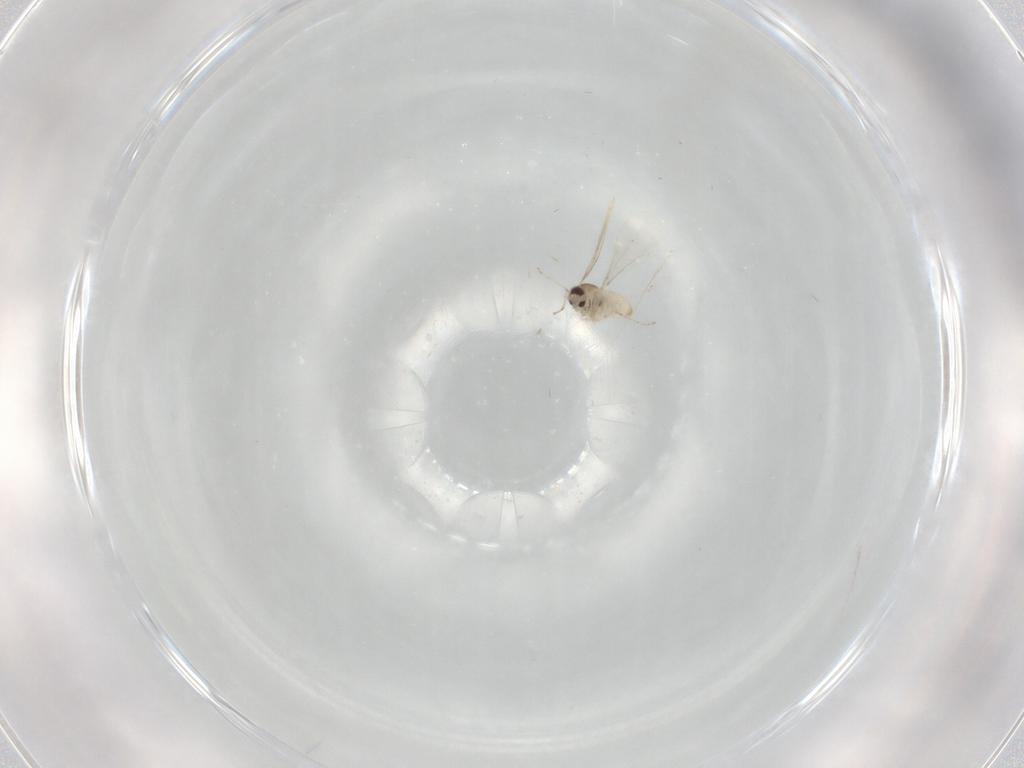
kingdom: Animalia
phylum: Arthropoda
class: Insecta
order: Diptera
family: Cecidomyiidae
